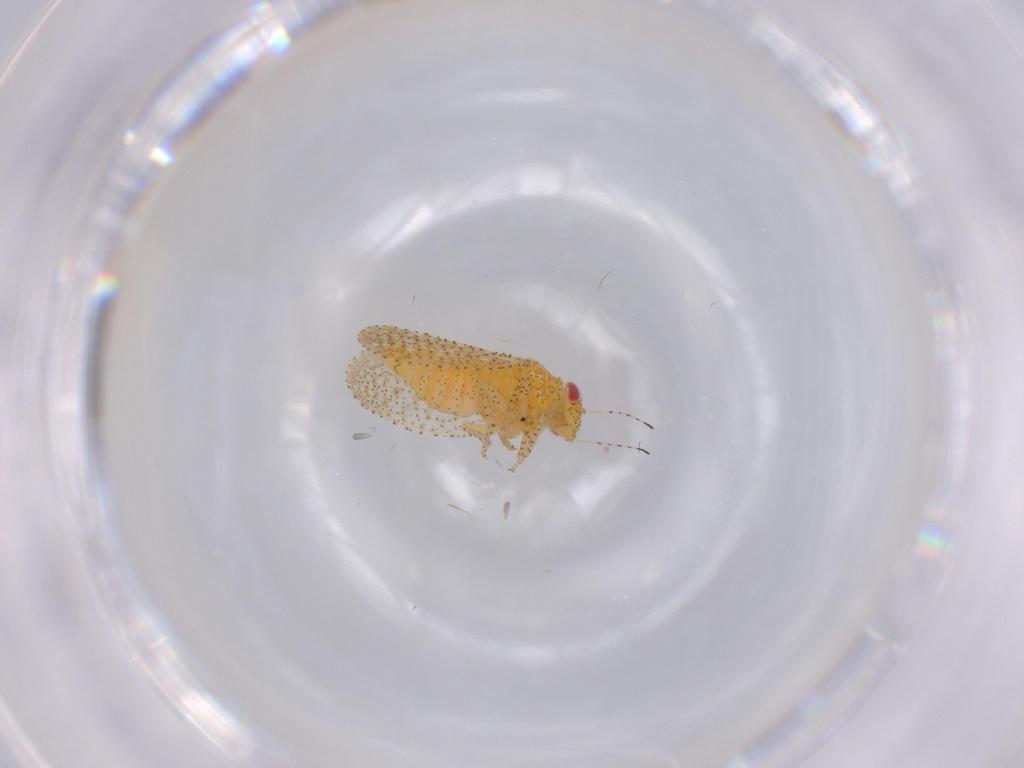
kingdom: Animalia
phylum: Arthropoda
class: Insecta
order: Hemiptera
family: Psyllidae
